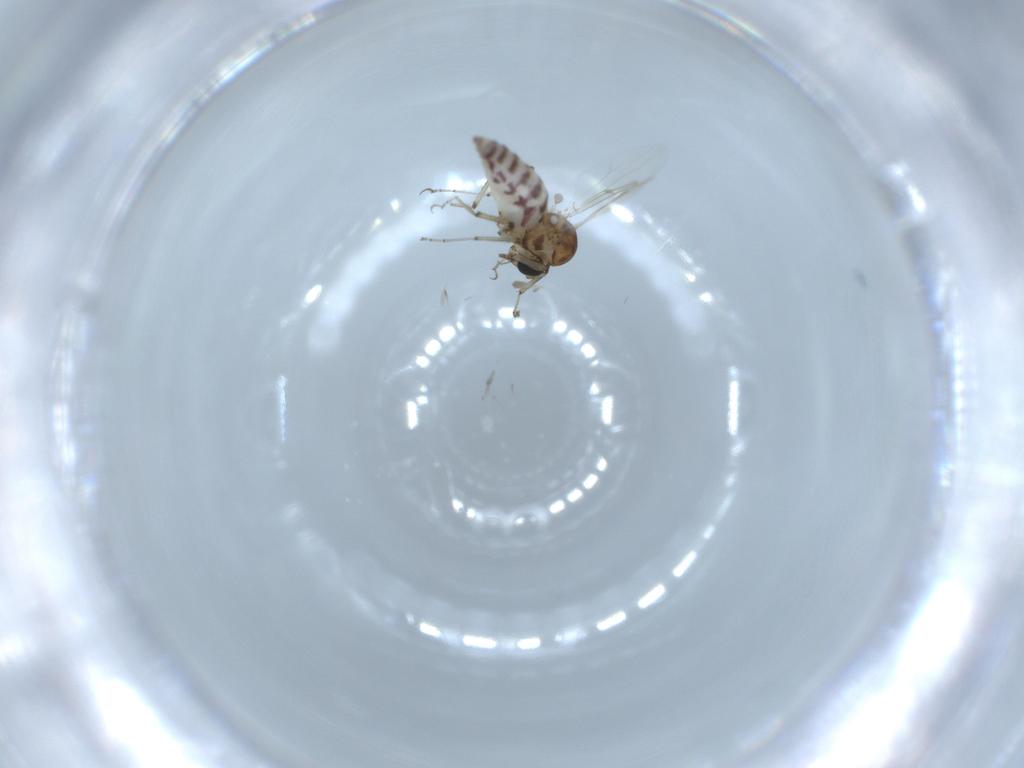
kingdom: Animalia
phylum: Arthropoda
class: Insecta
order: Diptera
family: Ceratopogonidae
